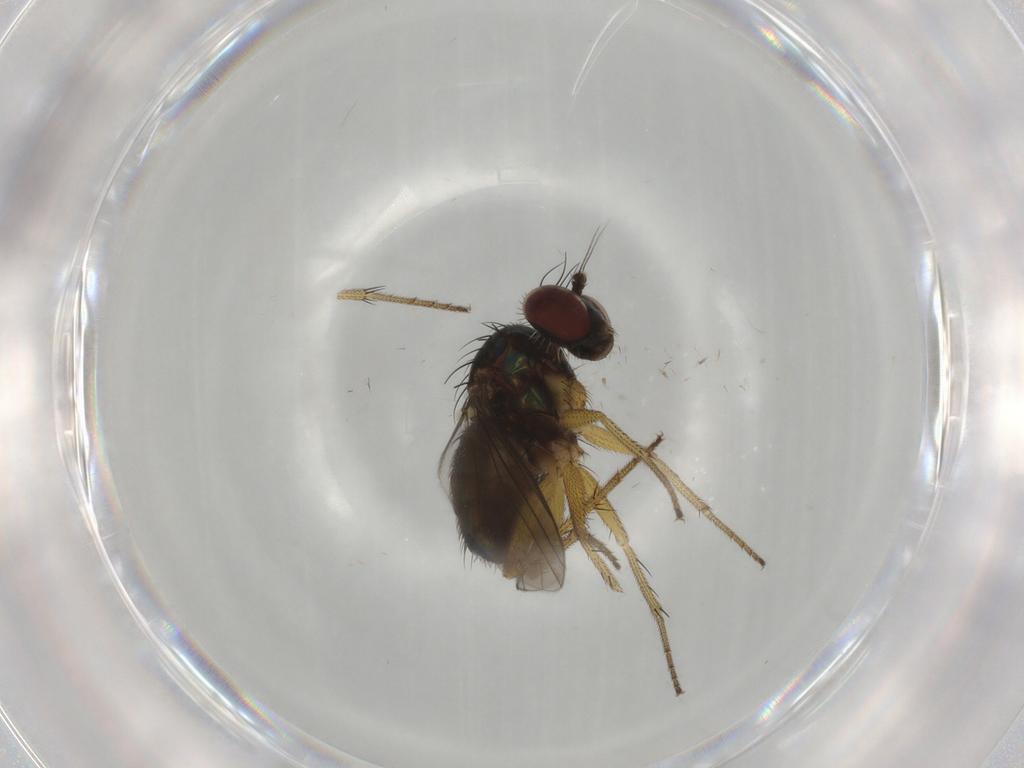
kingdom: Animalia
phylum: Arthropoda
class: Insecta
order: Diptera
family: Dolichopodidae
